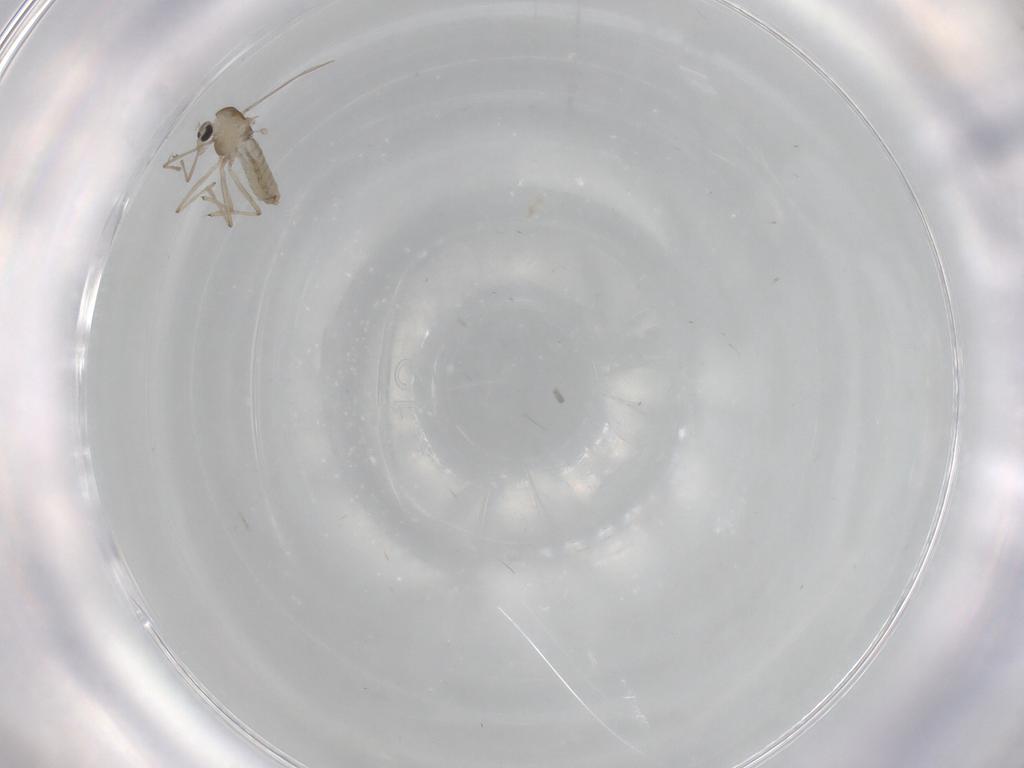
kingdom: Animalia
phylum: Arthropoda
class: Insecta
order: Diptera
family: Chironomidae
